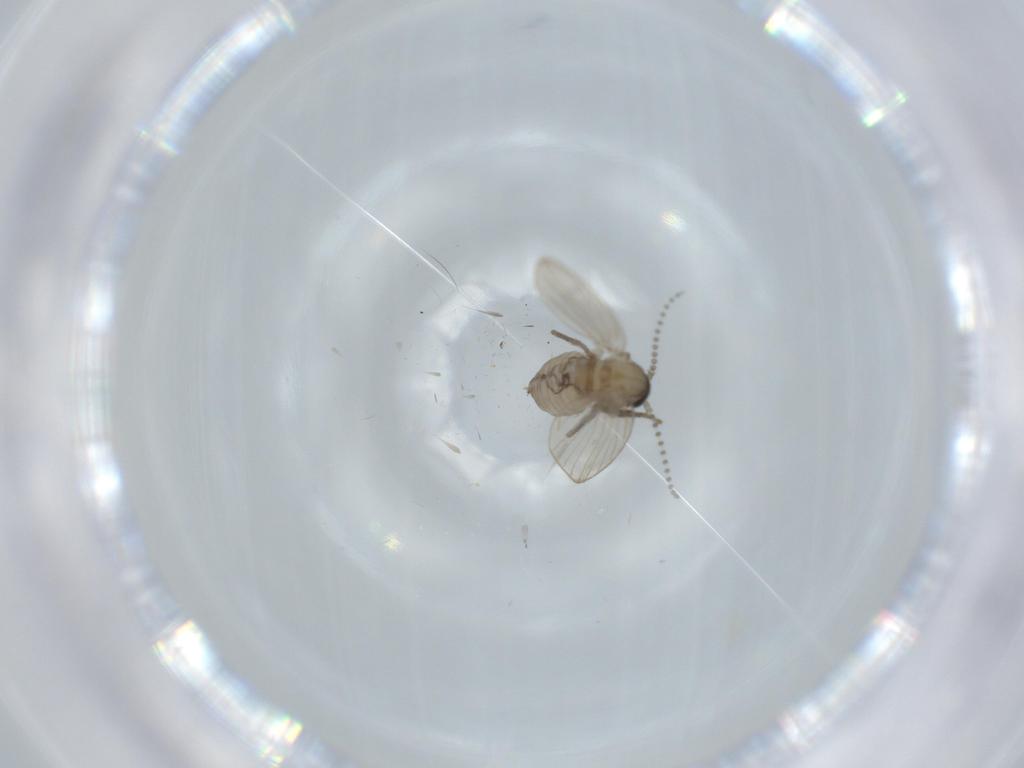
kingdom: Animalia
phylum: Arthropoda
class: Insecta
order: Diptera
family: Psychodidae
